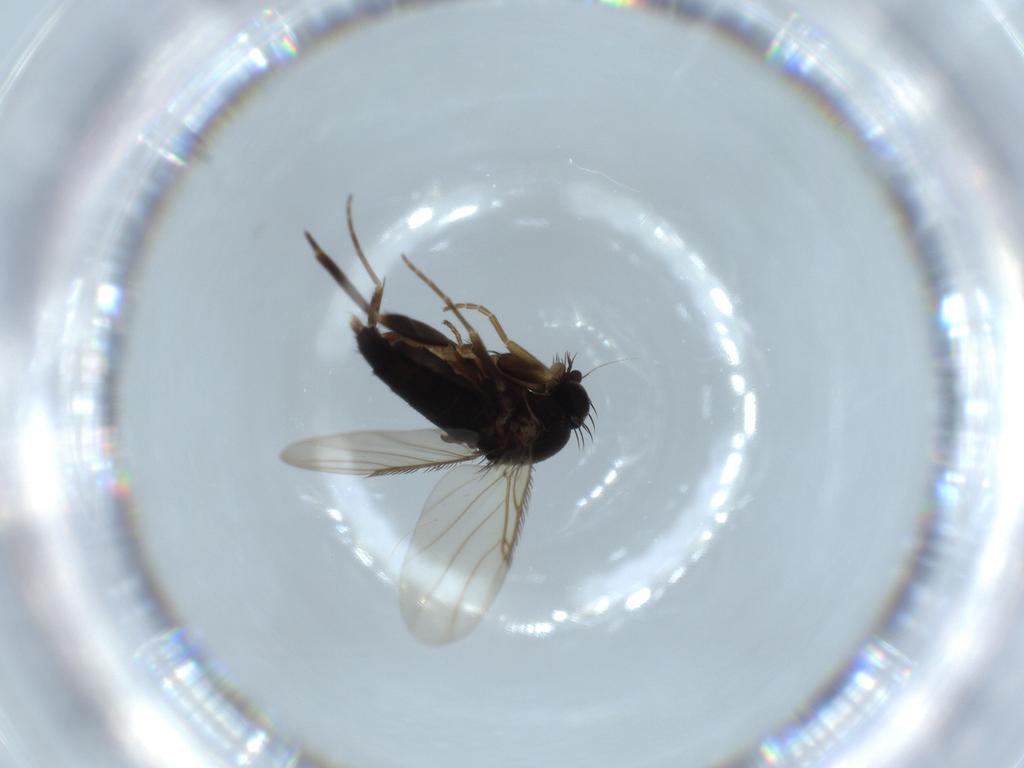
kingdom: Animalia
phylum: Arthropoda
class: Insecta
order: Diptera
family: Phoridae
